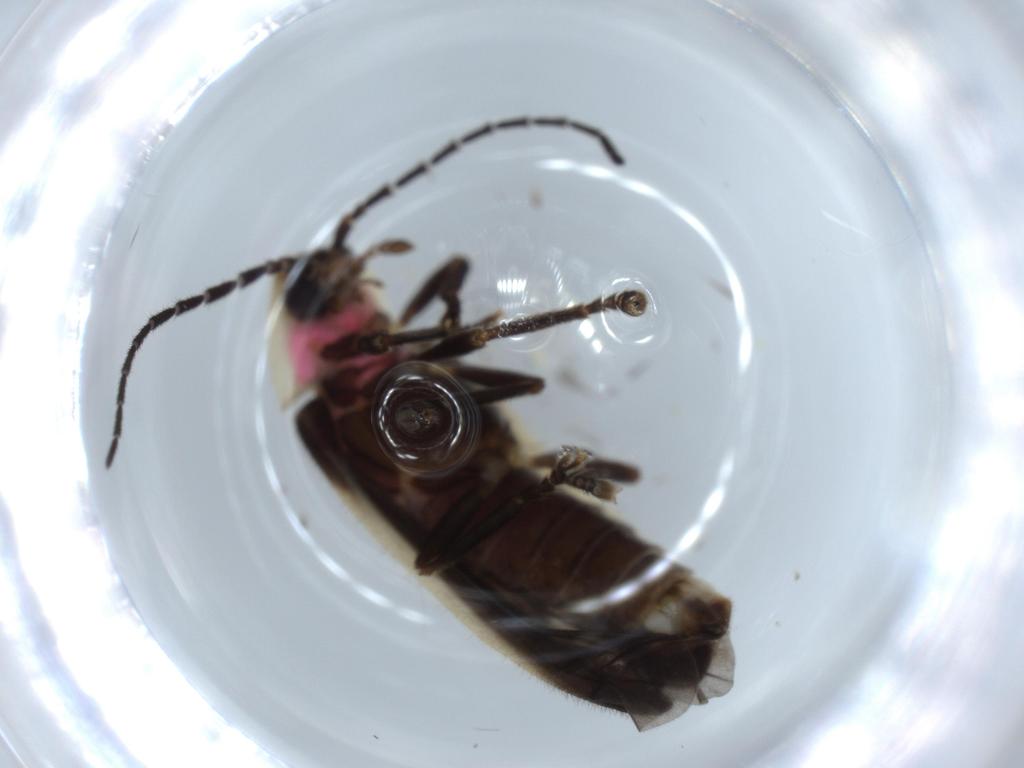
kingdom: Animalia
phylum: Arthropoda
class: Insecta
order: Coleoptera
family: Lampyridae
